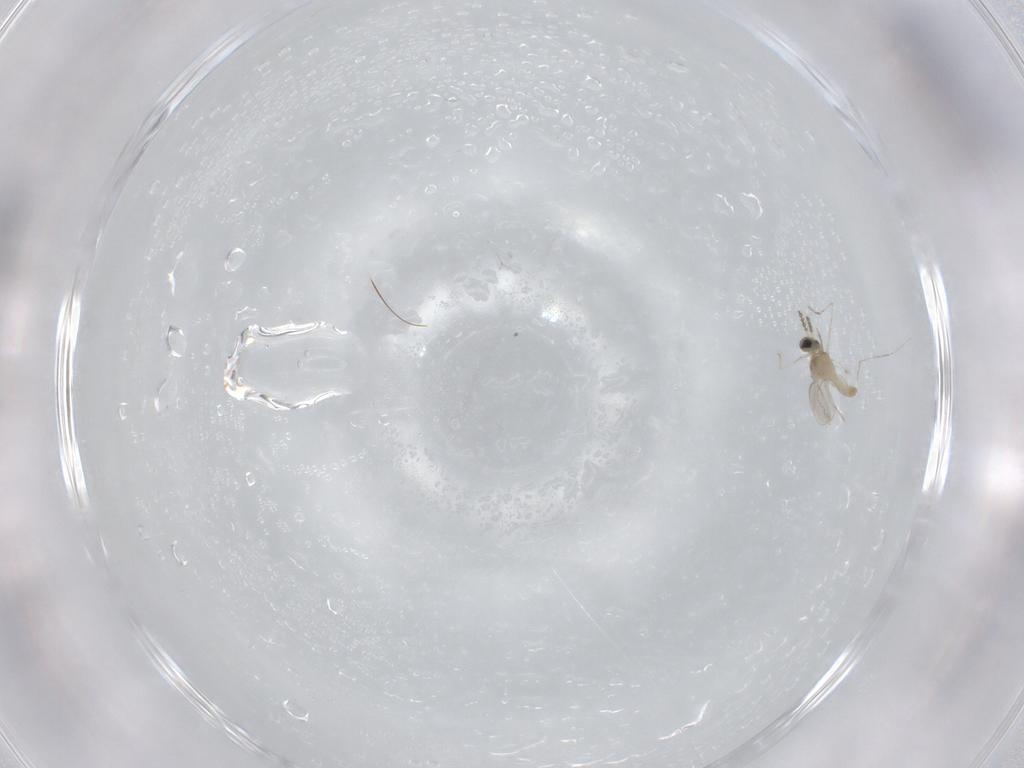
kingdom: Animalia
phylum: Arthropoda
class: Insecta
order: Diptera
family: Cecidomyiidae
